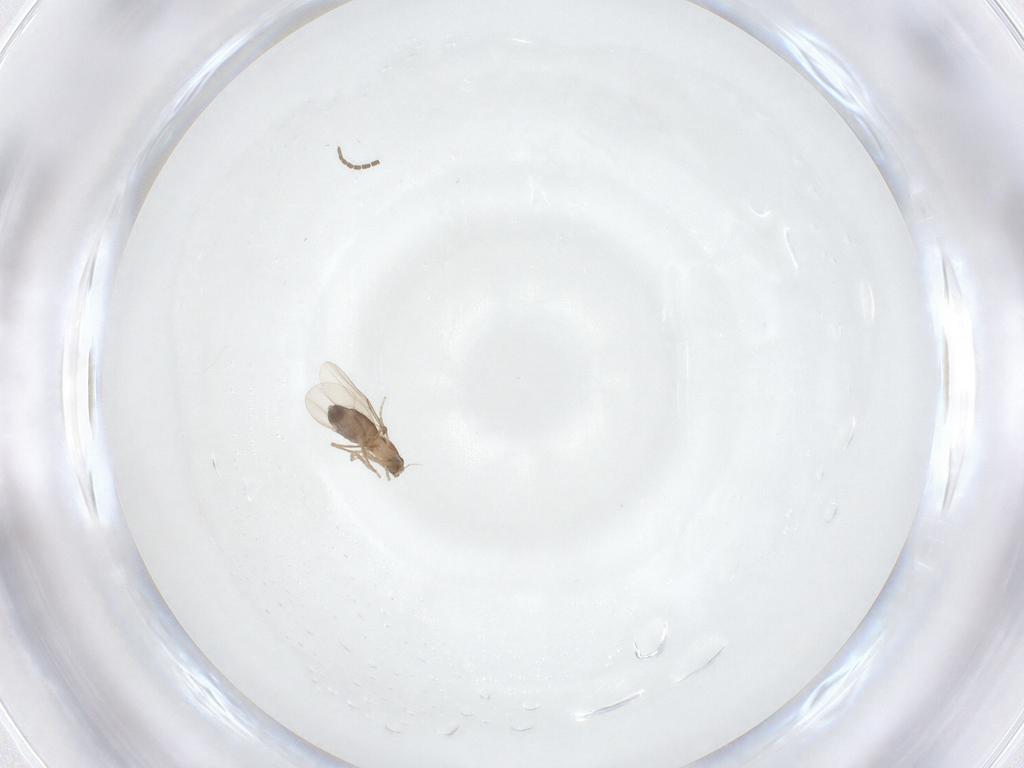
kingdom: Animalia
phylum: Arthropoda
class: Insecta
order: Diptera
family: Phoridae
